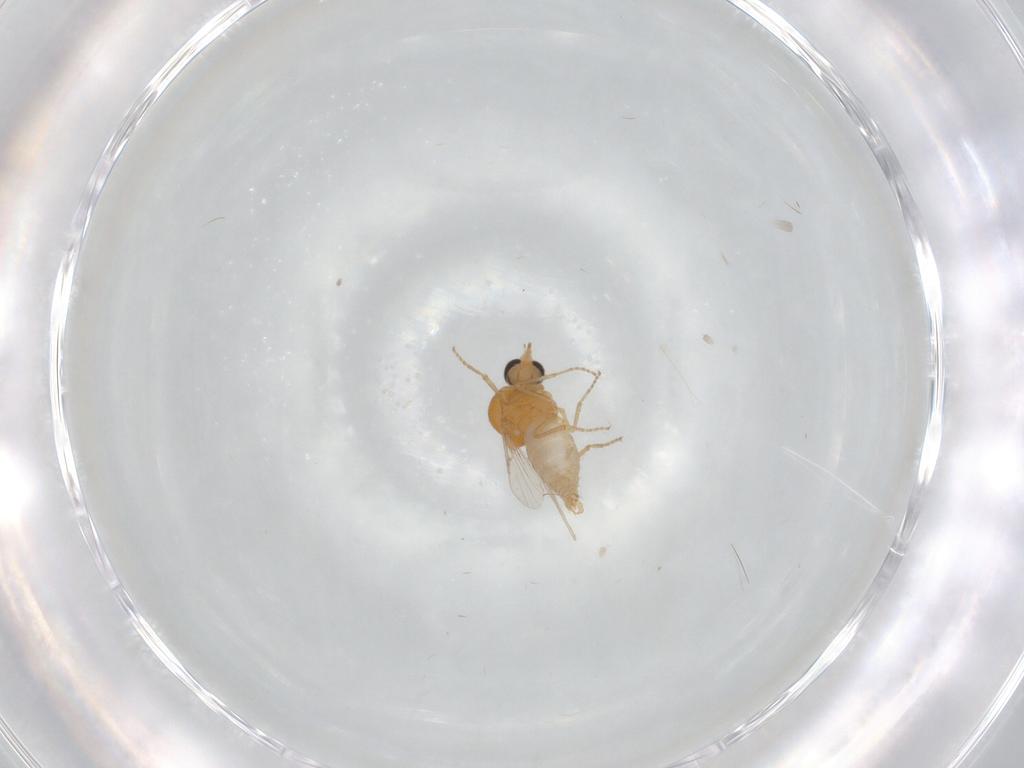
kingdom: Animalia
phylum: Arthropoda
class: Insecta
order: Diptera
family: Ceratopogonidae
